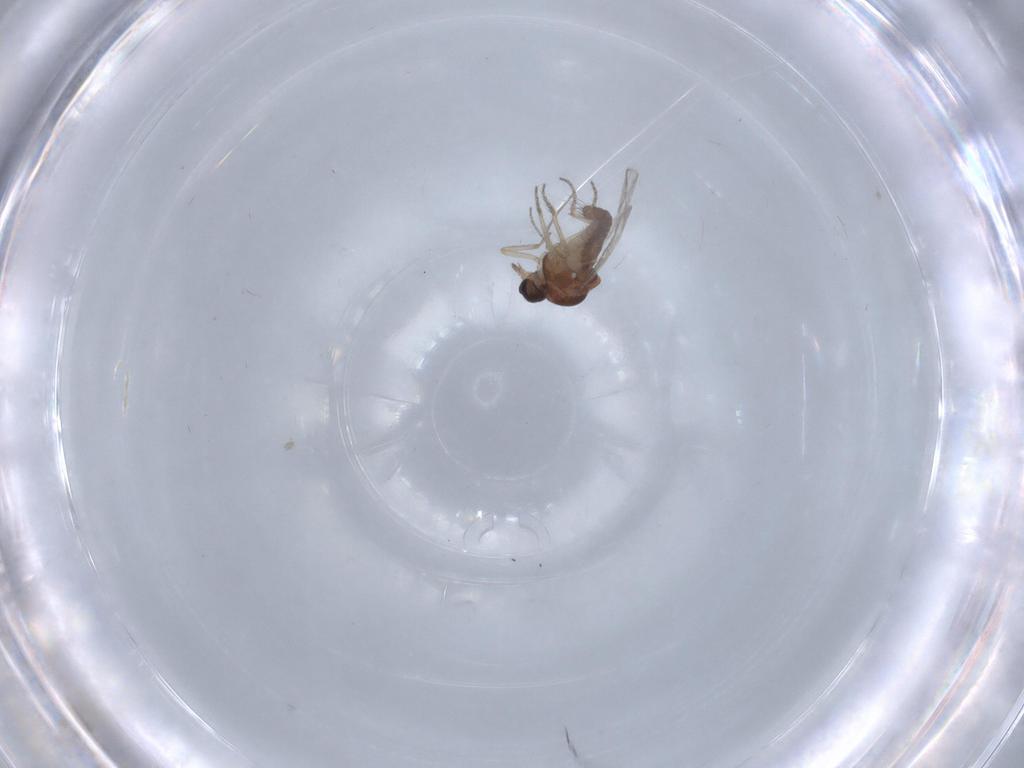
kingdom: Animalia
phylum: Arthropoda
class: Insecta
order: Diptera
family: Ceratopogonidae
